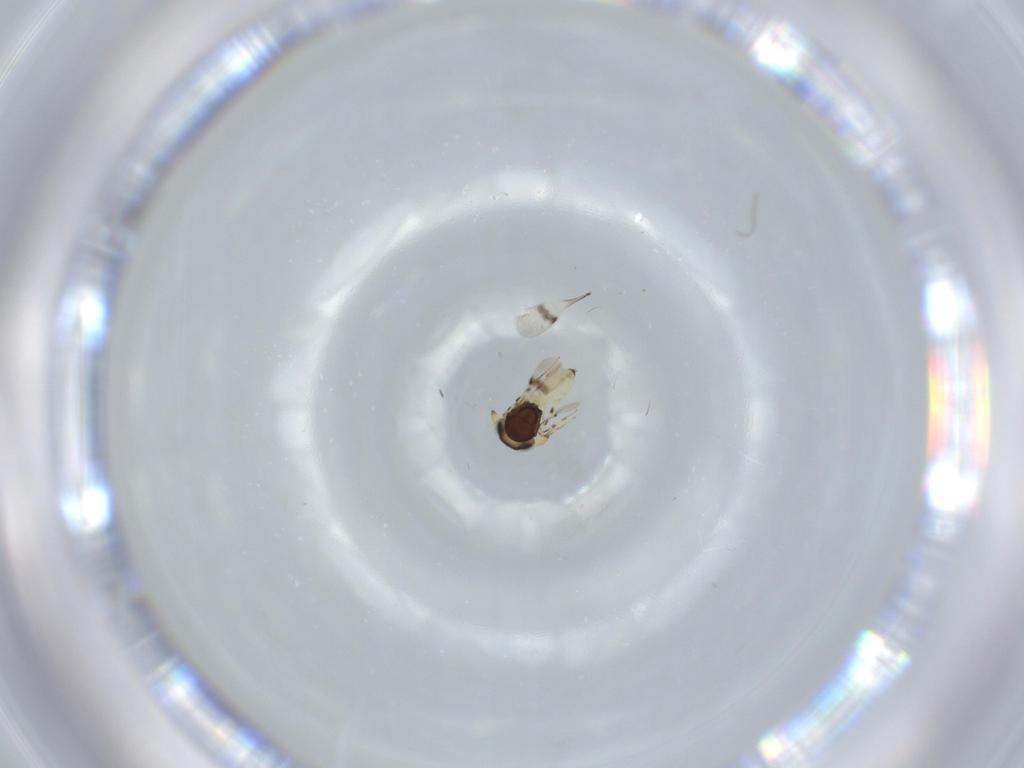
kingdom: Animalia
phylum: Arthropoda
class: Insecta
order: Hymenoptera
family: Scelionidae
